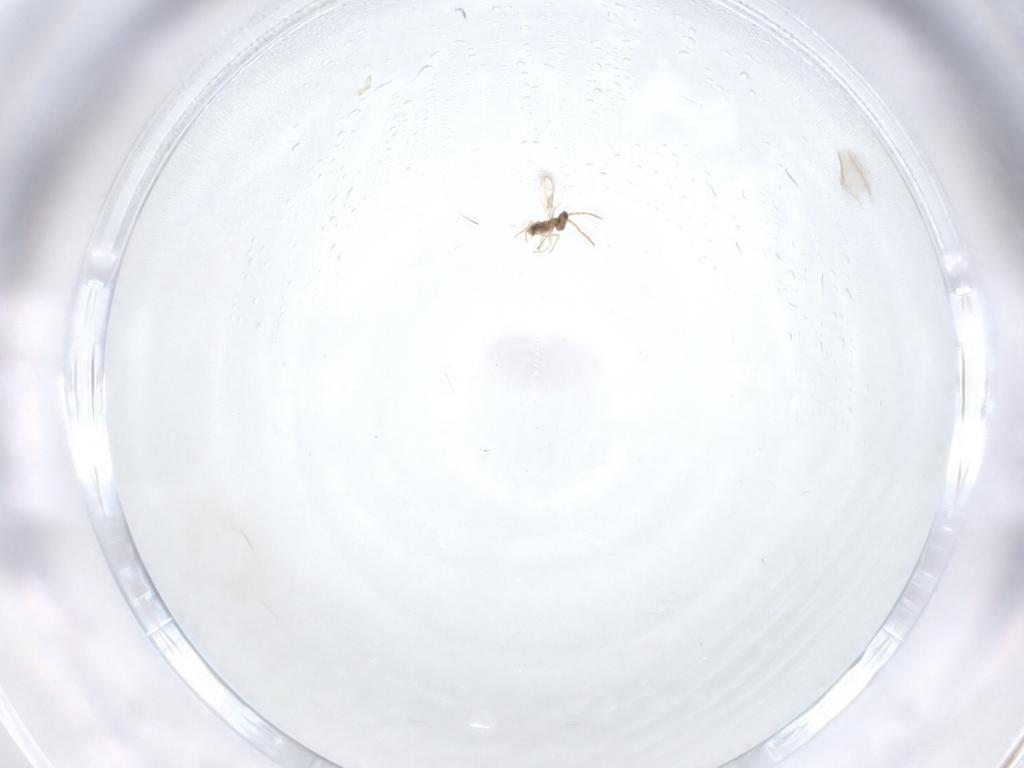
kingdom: Animalia
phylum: Arthropoda
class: Insecta
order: Hymenoptera
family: Aphelinidae
